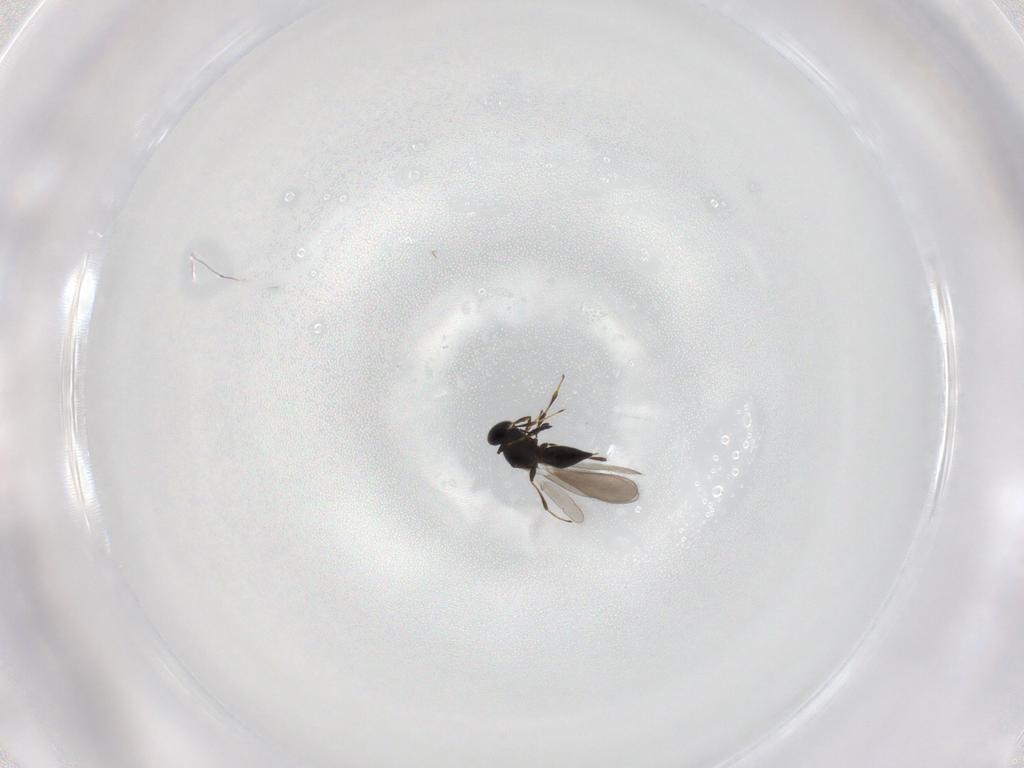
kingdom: Animalia
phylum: Arthropoda
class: Insecta
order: Hymenoptera
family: Platygastridae
